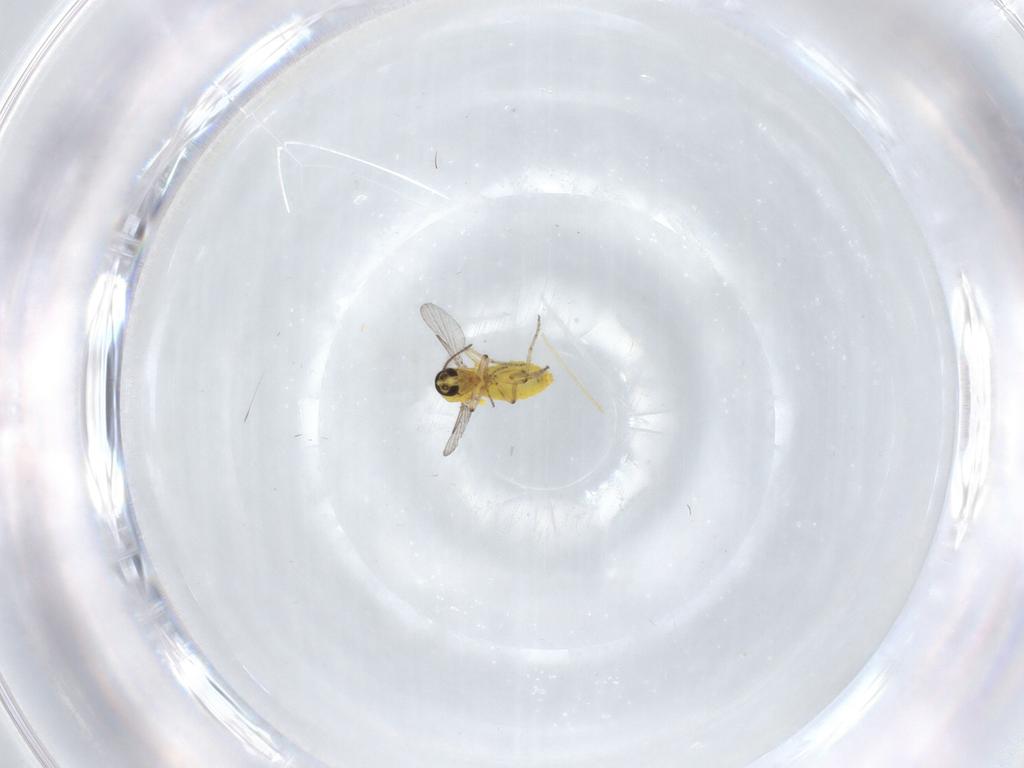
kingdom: Animalia
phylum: Arthropoda
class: Insecta
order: Diptera
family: Ceratopogonidae
